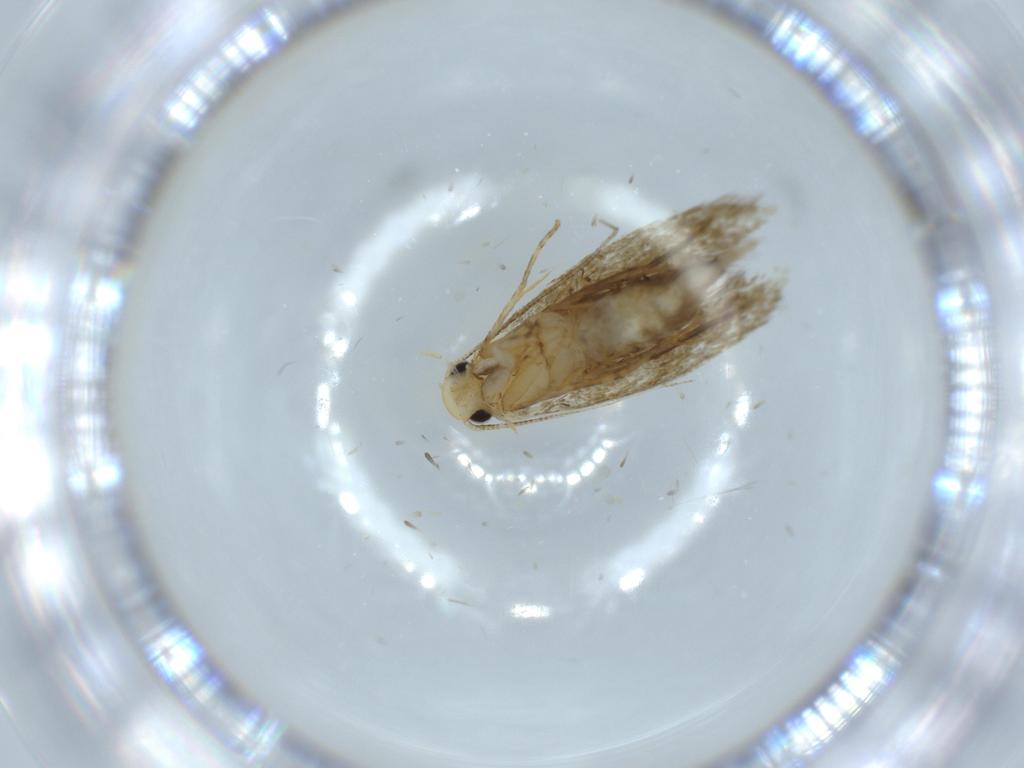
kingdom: Animalia
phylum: Arthropoda
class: Insecta
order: Lepidoptera
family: Tineidae
